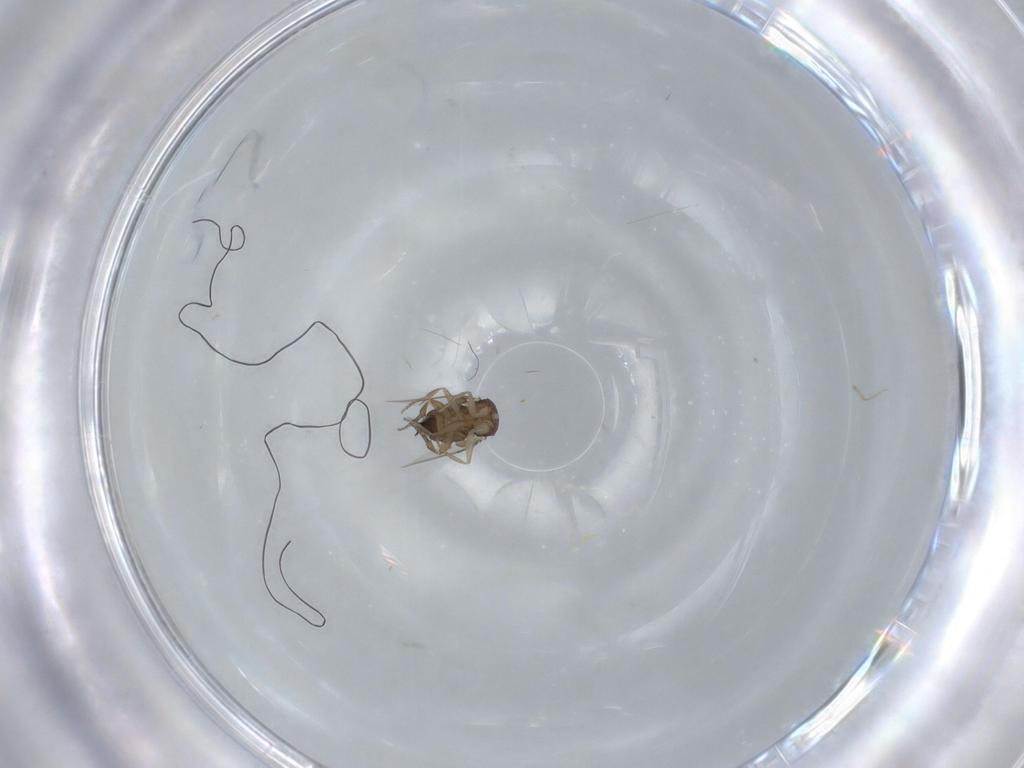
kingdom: Animalia
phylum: Arthropoda
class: Insecta
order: Diptera
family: Phoridae
